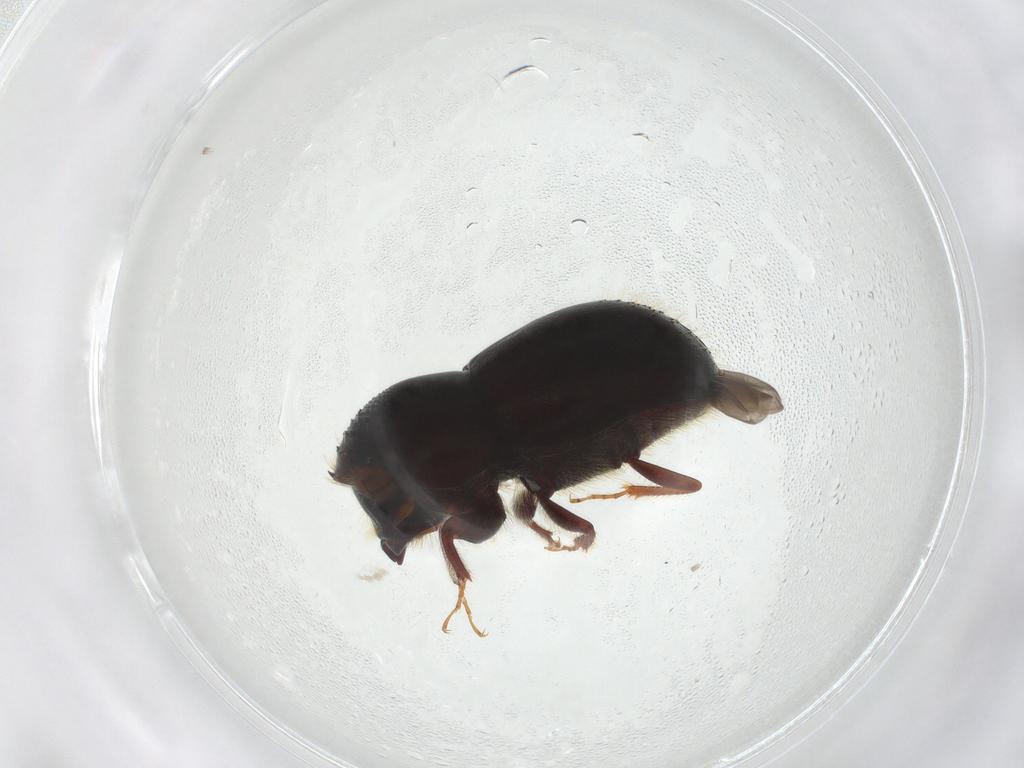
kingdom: Animalia
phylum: Arthropoda
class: Insecta
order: Coleoptera
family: Curculionidae
